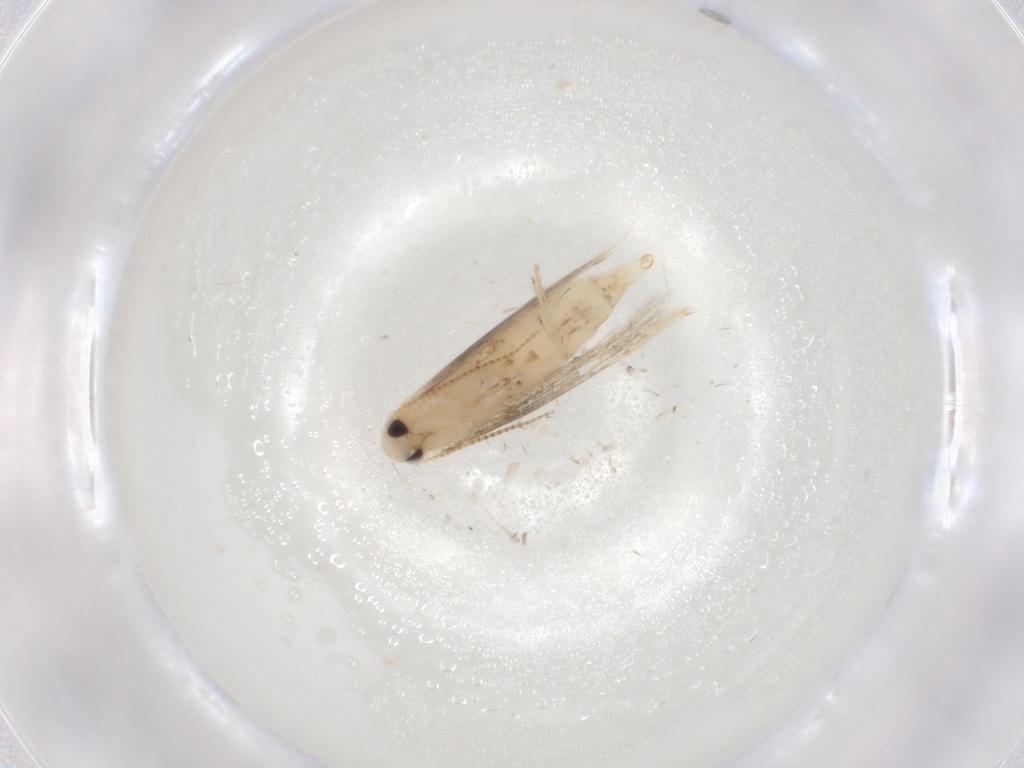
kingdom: Animalia
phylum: Arthropoda
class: Insecta
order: Lepidoptera
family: Gracillariidae
